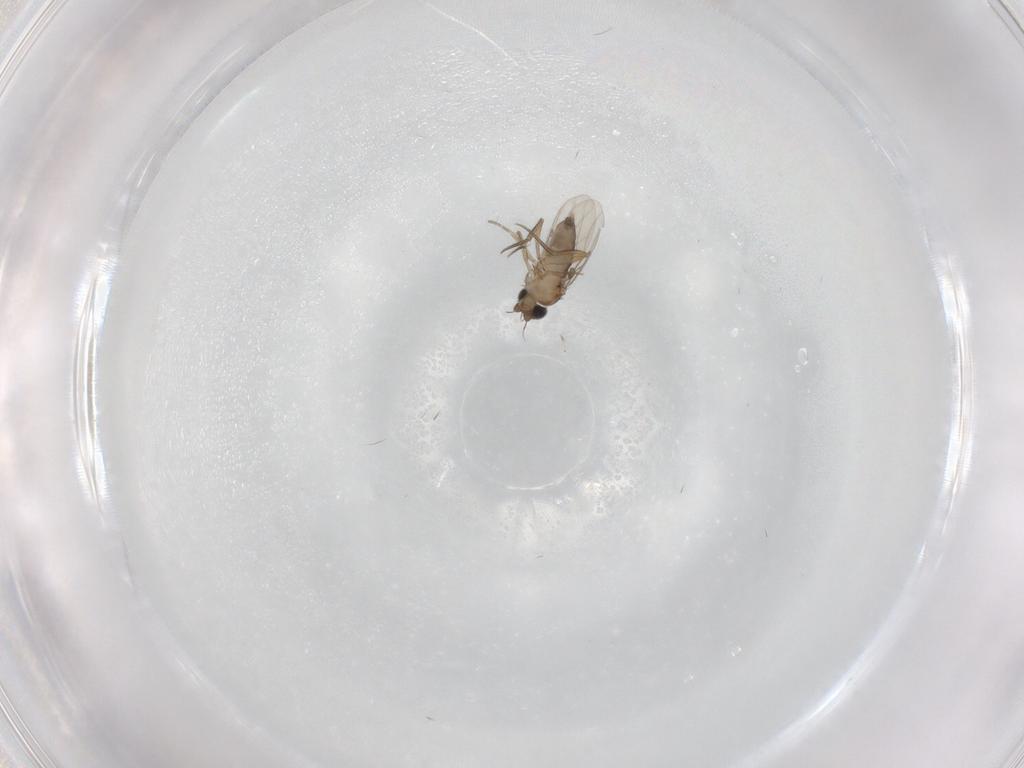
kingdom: Animalia
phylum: Arthropoda
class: Insecta
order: Diptera
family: Phoridae
